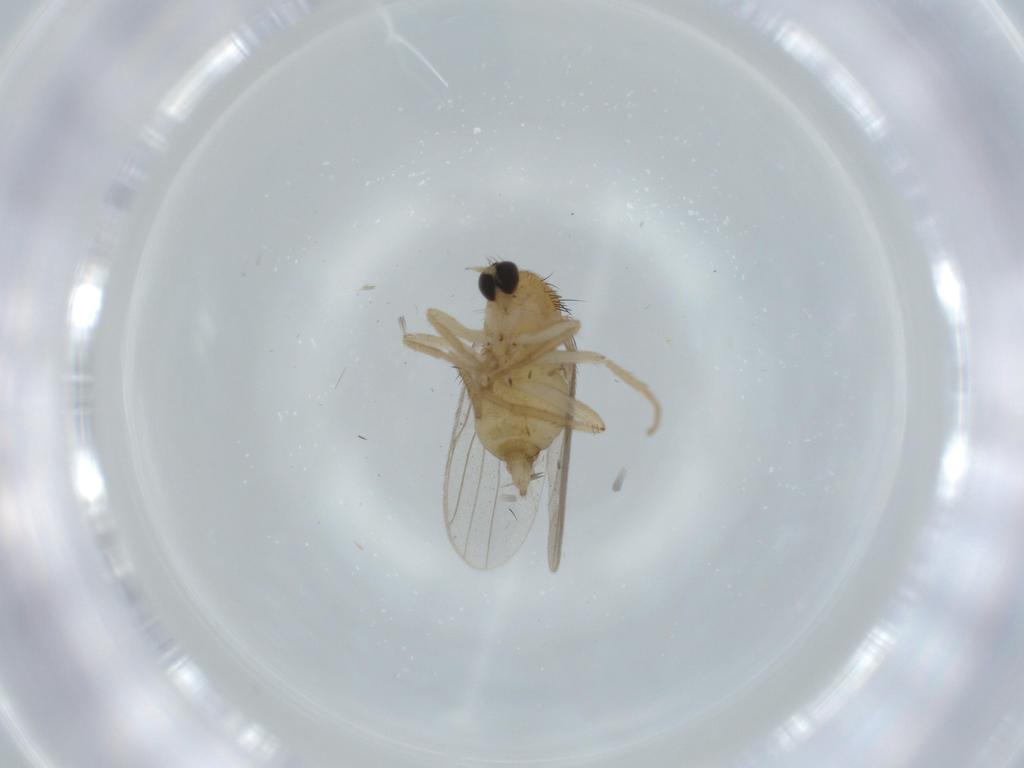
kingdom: Animalia
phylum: Arthropoda
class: Insecta
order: Diptera
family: Hybotidae
